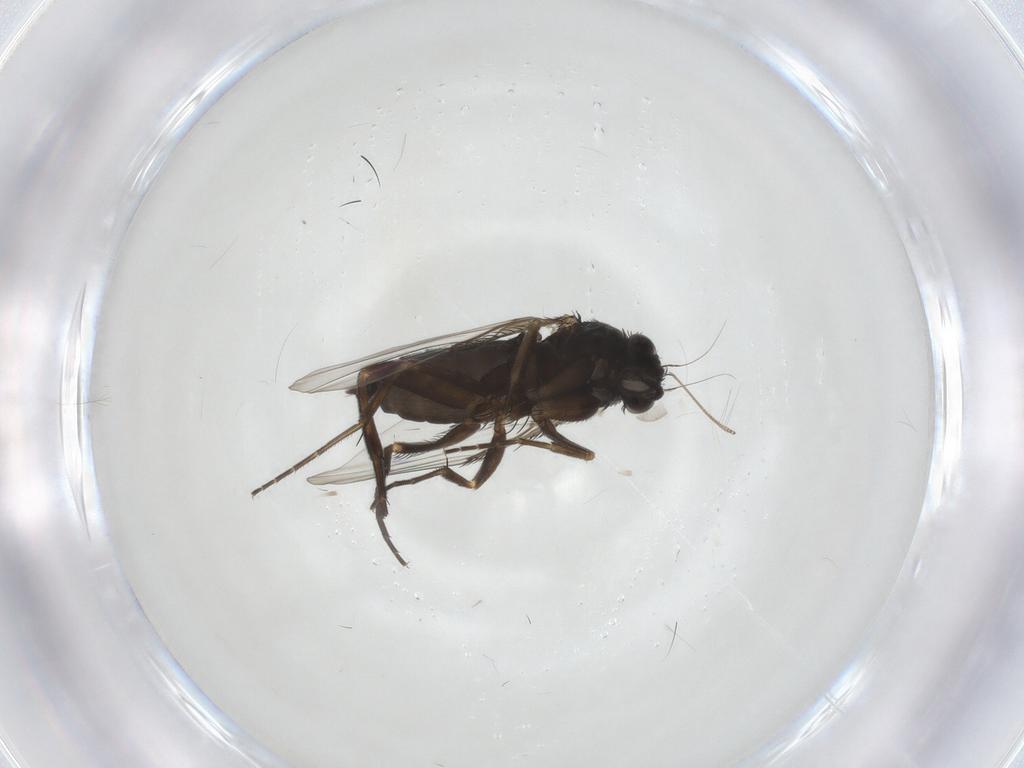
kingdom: Animalia
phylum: Arthropoda
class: Insecta
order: Diptera
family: Phoridae
